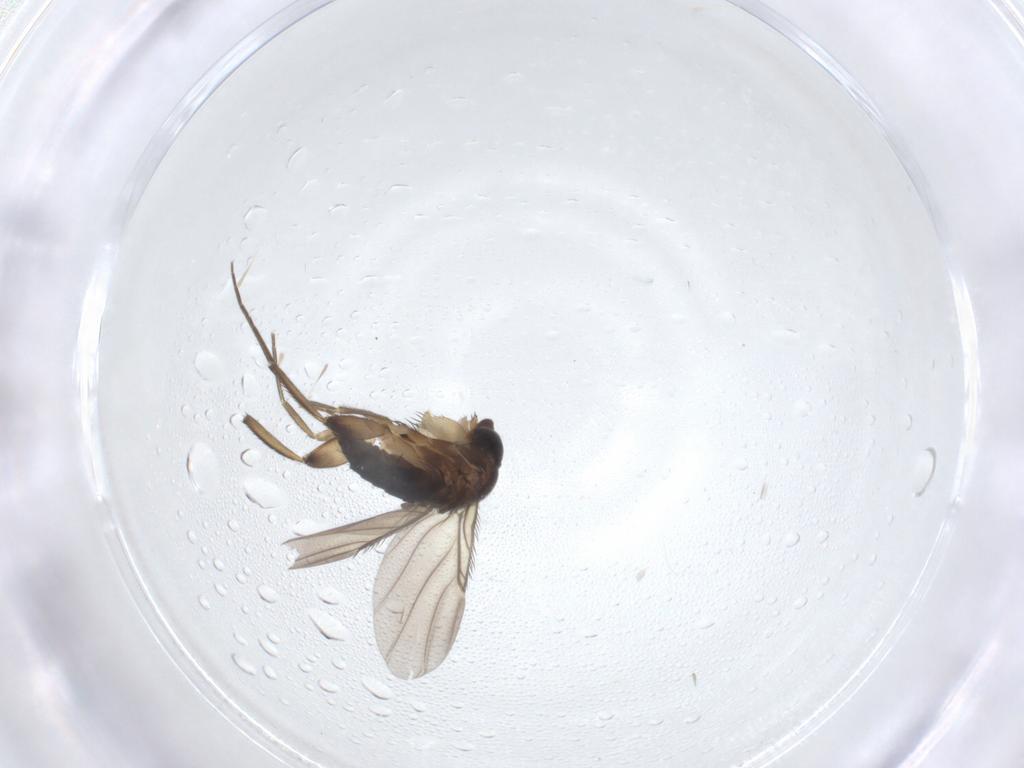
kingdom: Animalia
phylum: Arthropoda
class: Insecta
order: Diptera
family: Phoridae
